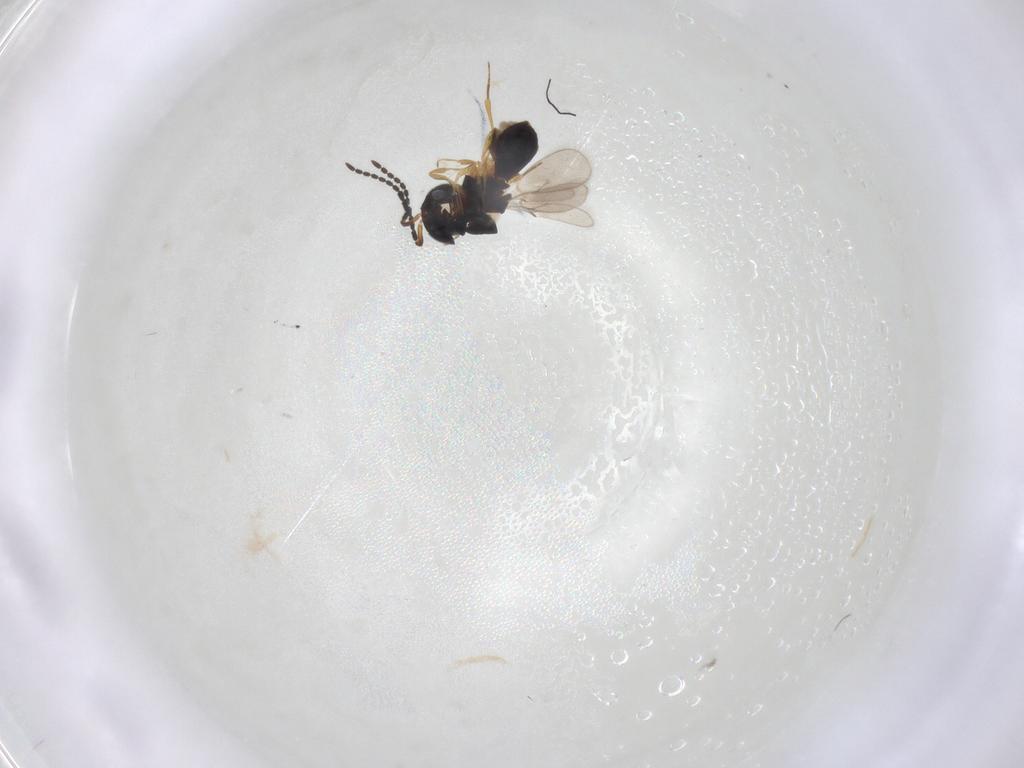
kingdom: Animalia
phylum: Arthropoda
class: Insecta
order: Hymenoptera
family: Scelionidae
